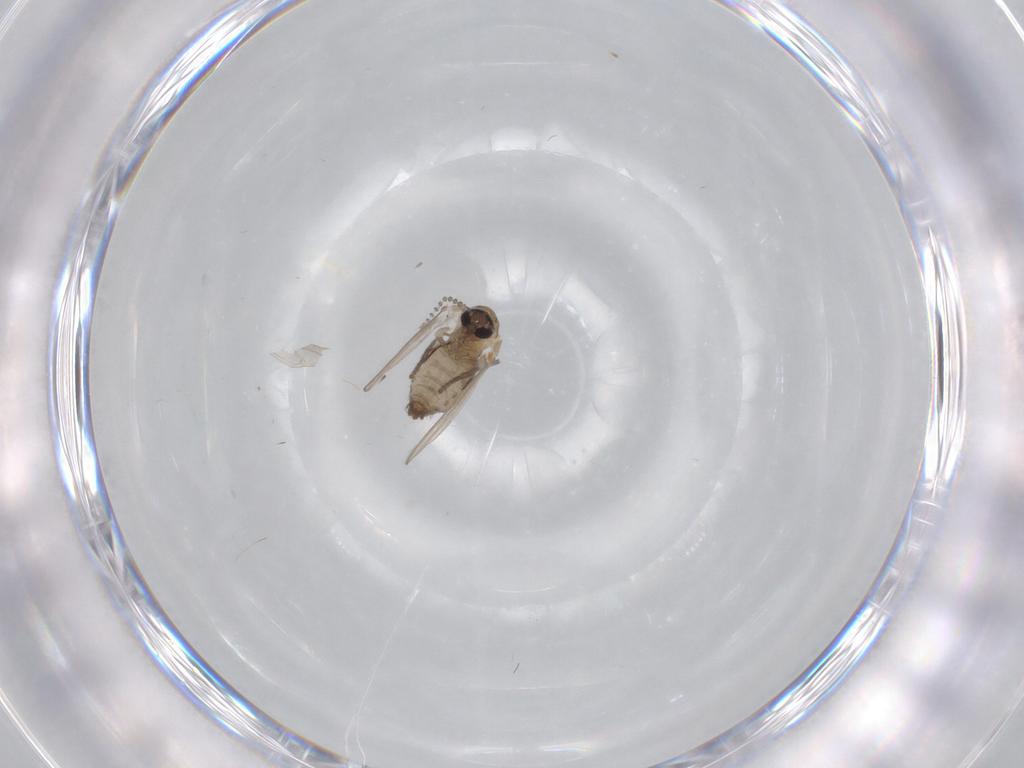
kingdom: Animalia
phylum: Arthropoda
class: Insecta
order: Diptera
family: Psychodidae
